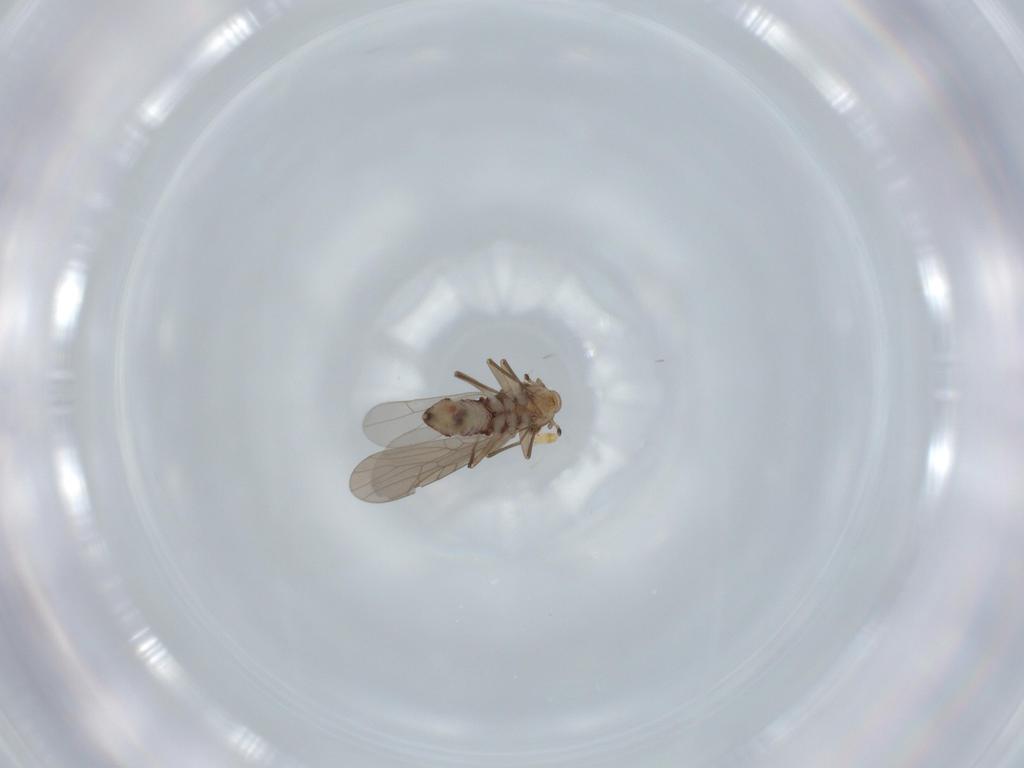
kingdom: Animalia
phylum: Arthropoda
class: Insecta
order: Psocodea
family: Lepidopsocidae
